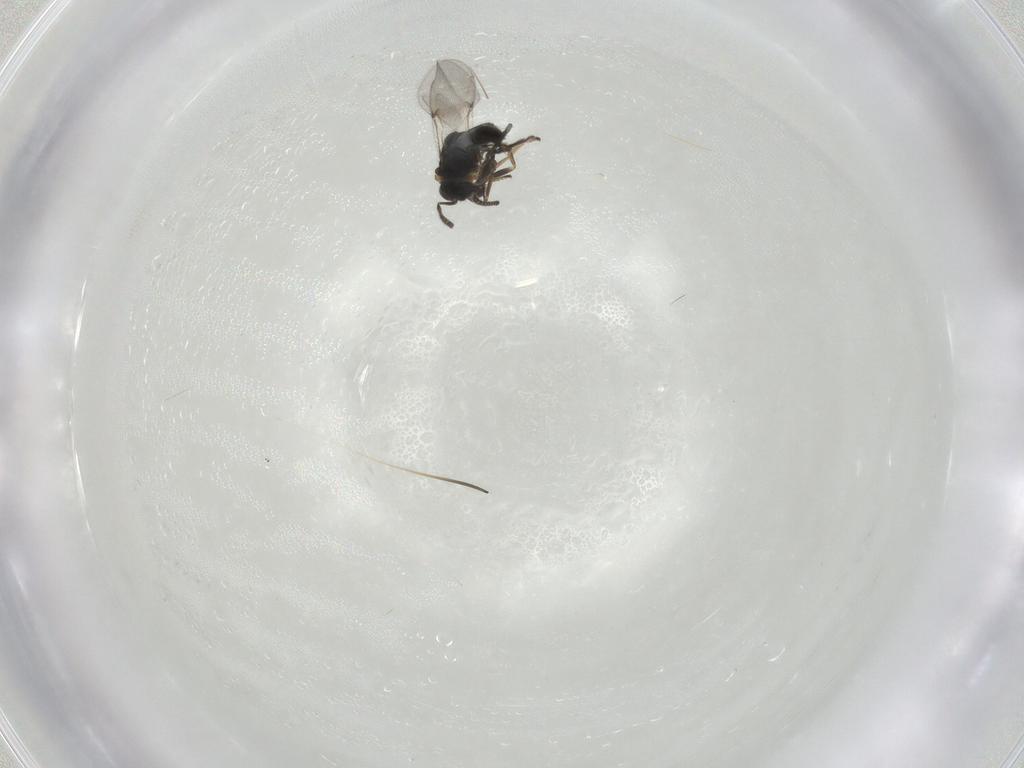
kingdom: Animalia
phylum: Arthropoda
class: Insecta
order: Hymenoptera
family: Encyrtidae
